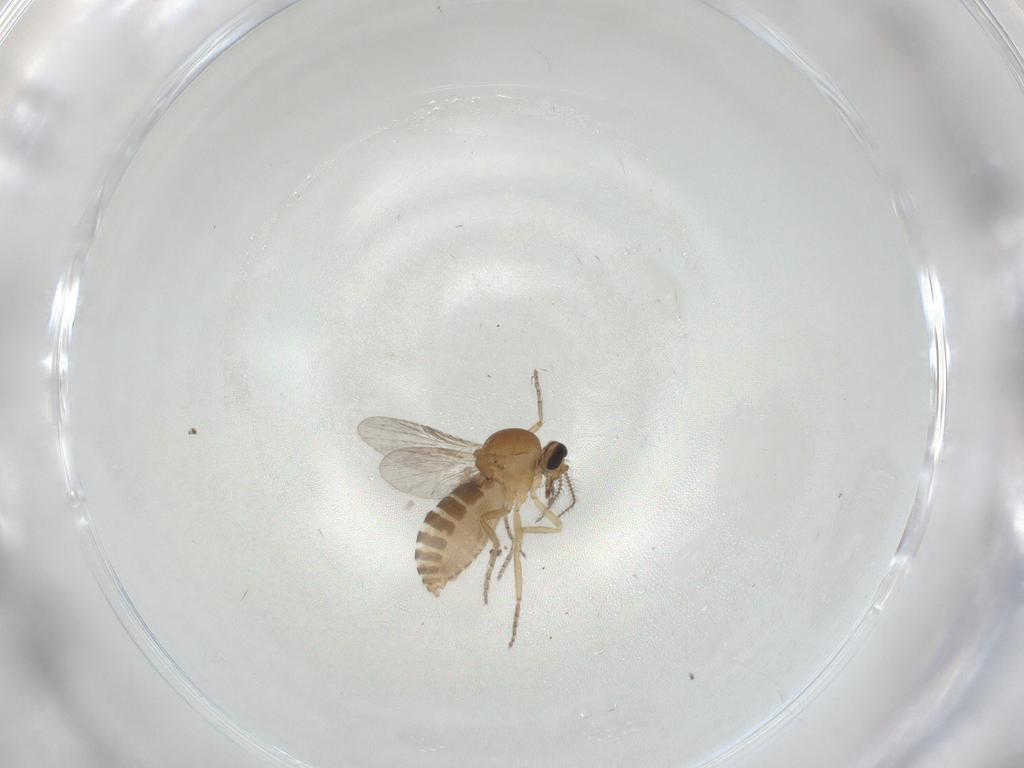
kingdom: Animalia
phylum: Arthropoda
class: Insecta
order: Diptera
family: Ceratopogonidae
